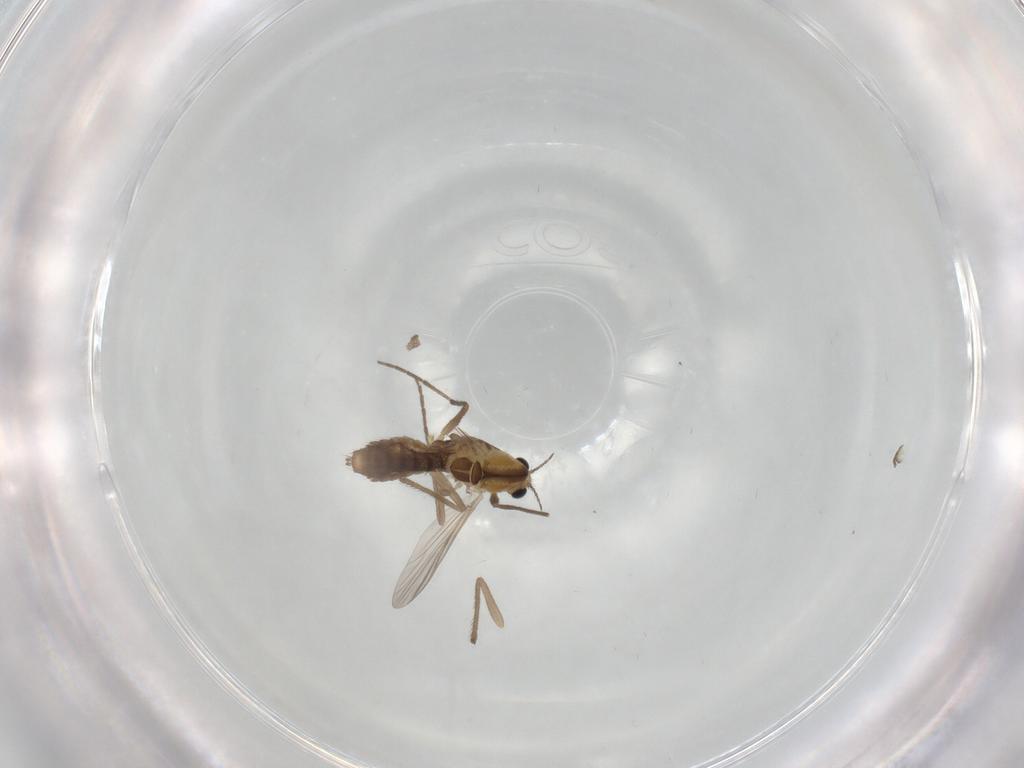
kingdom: Animalia
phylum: Arthropoda
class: Insecta
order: Diptera
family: Chironomidae
